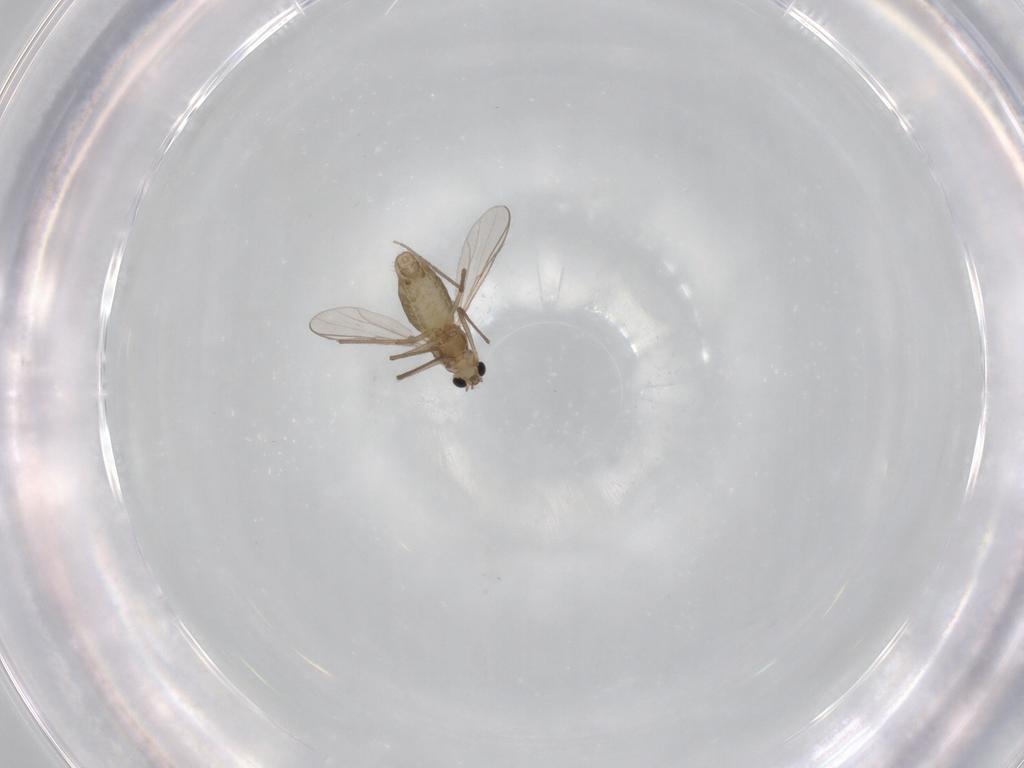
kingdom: Animalia
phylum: Arthropoda
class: Insecta
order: Diptera
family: Chironomidae
